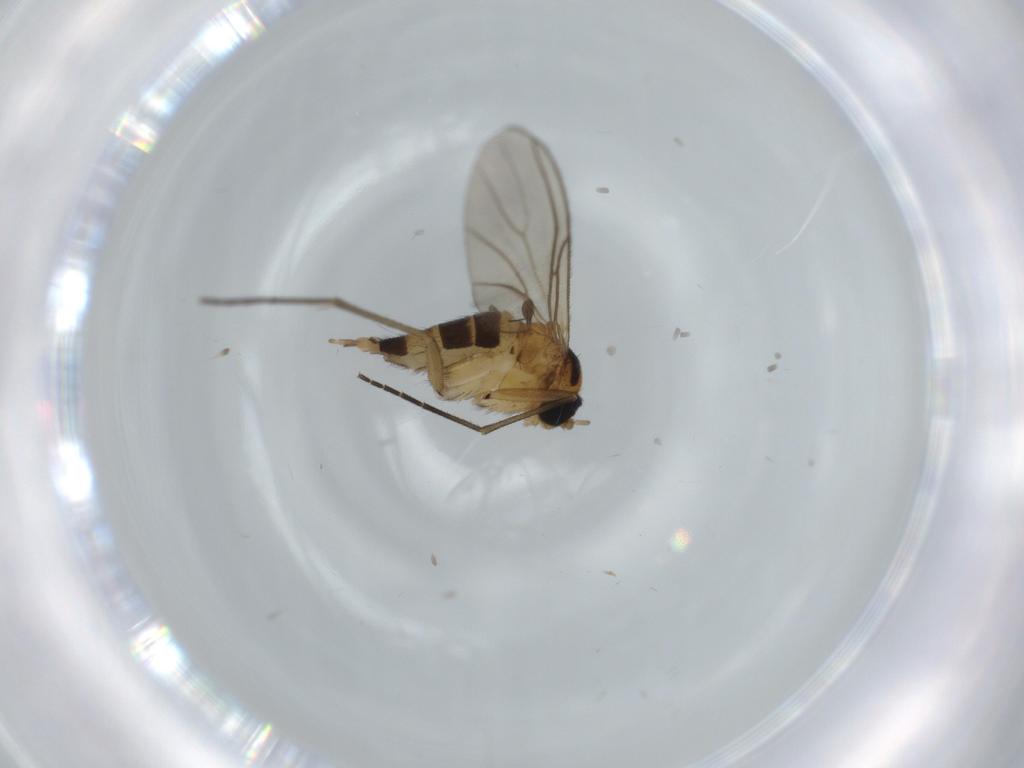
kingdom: Animalia
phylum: Arthropoda
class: Insecta
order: Diptera
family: Sciaridae
